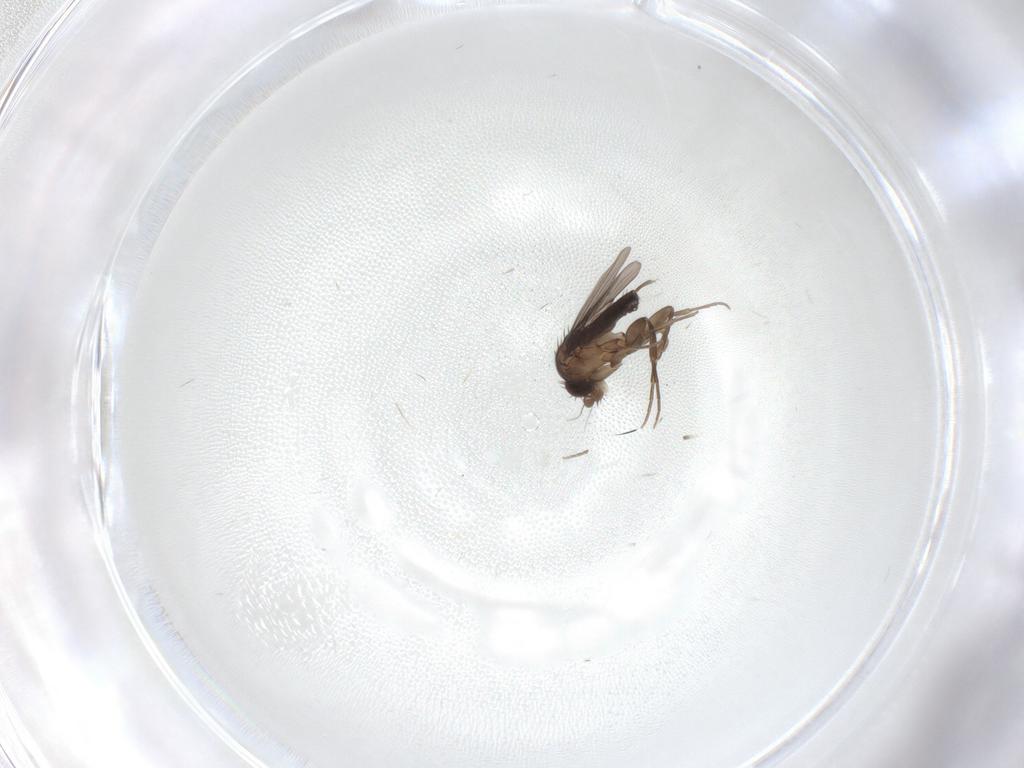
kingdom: Animalia
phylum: Arthropoda
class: Insecta
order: Diptera
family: Phoridae
